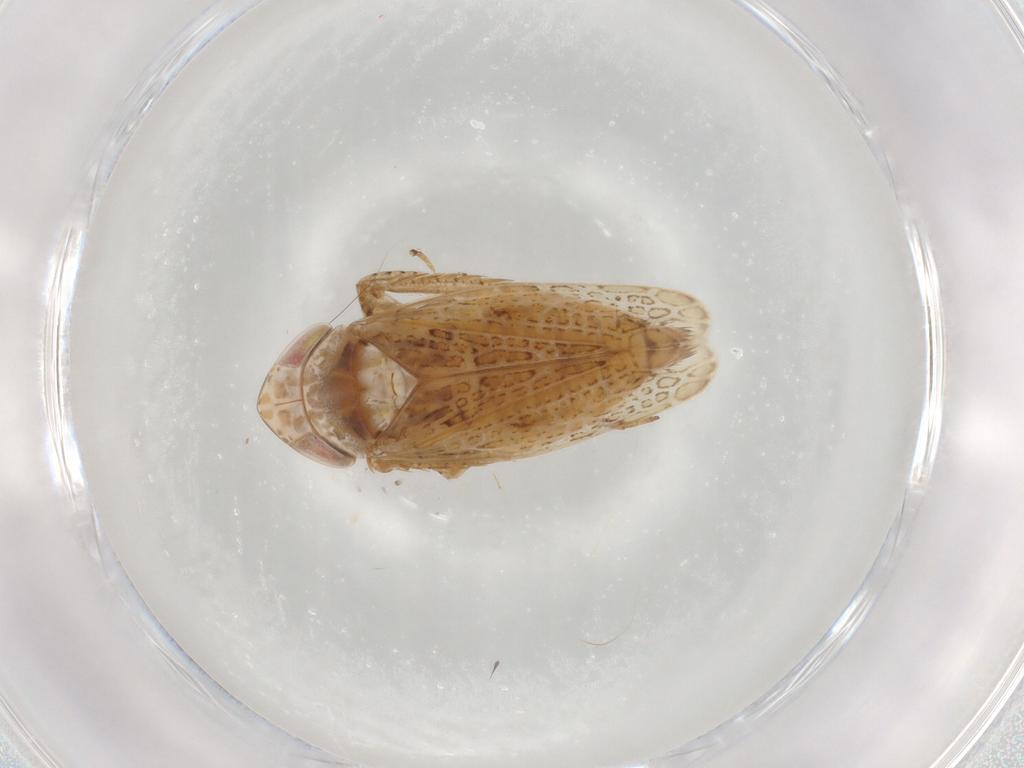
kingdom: Animalia
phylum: Arthropoda
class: Insecta
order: Hemiptera
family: Cicadellidae
